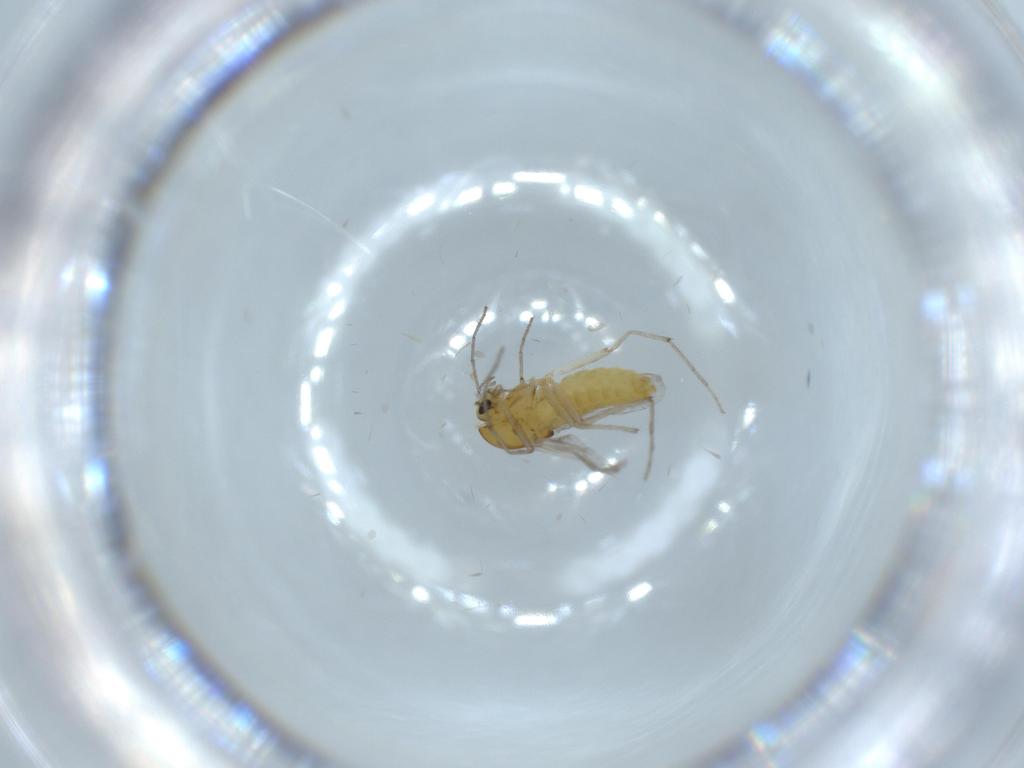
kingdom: Animalia
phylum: Arthropoda
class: Insecta
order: Diptera
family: Chironomidae
